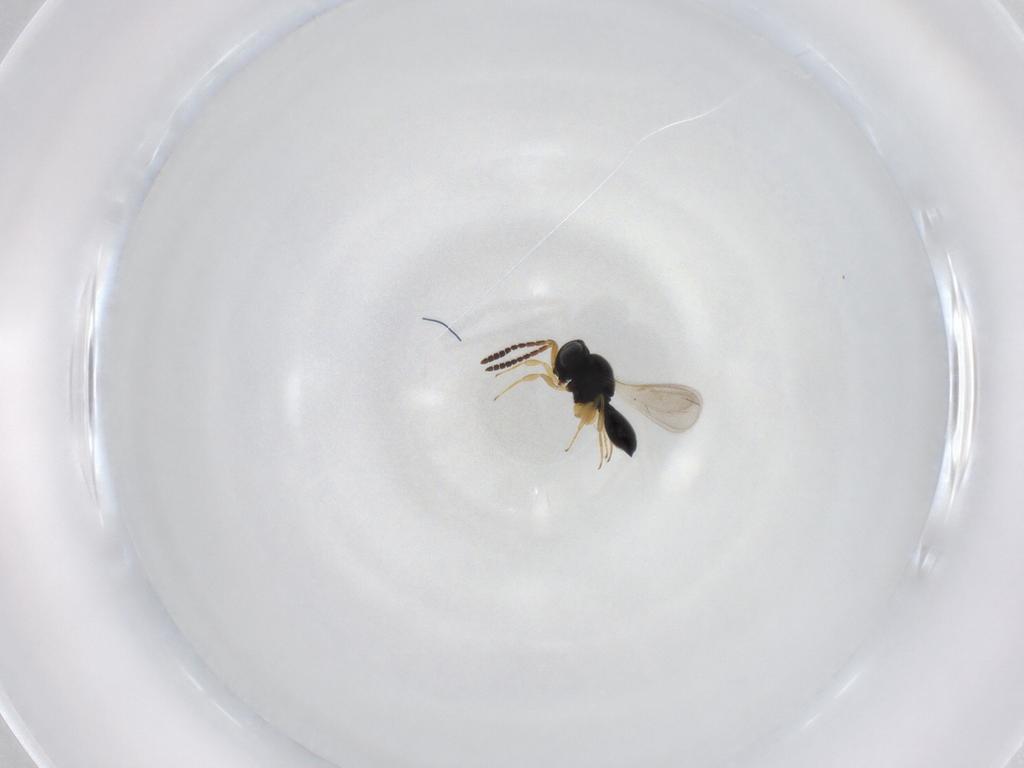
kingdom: Animalia
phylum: Arthropoda
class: Insecta
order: Hymenoptera
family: Scelionidae
